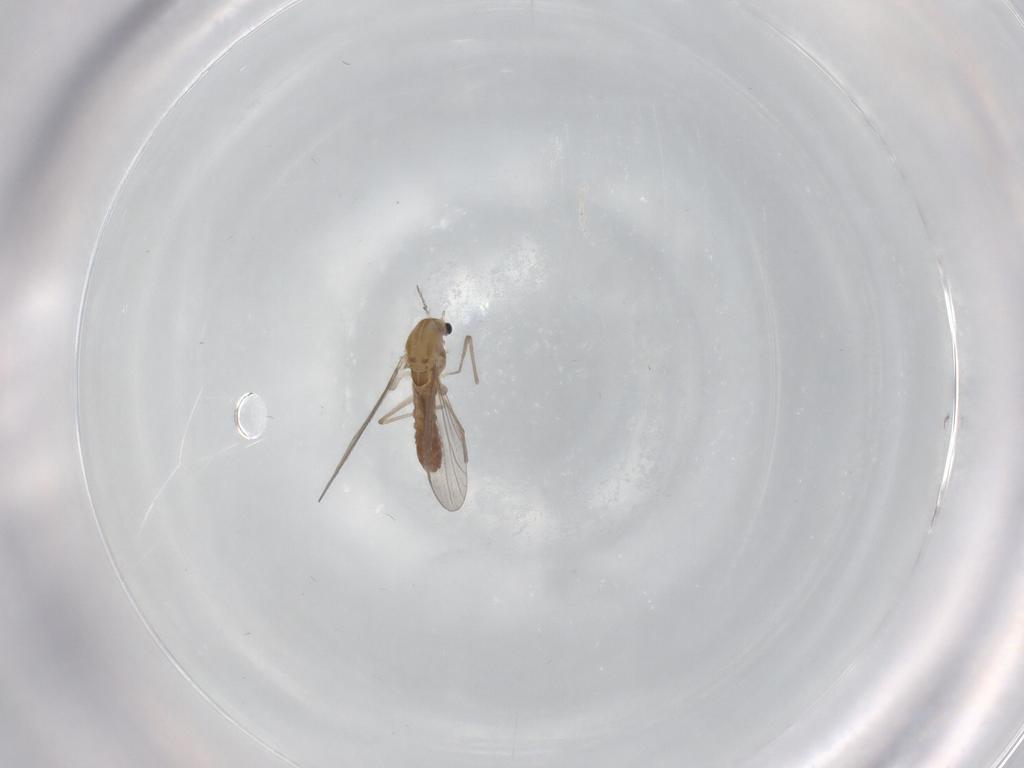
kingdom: Animalia
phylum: Arthropoda
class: Insecta
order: Diptera
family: Chironomidae
